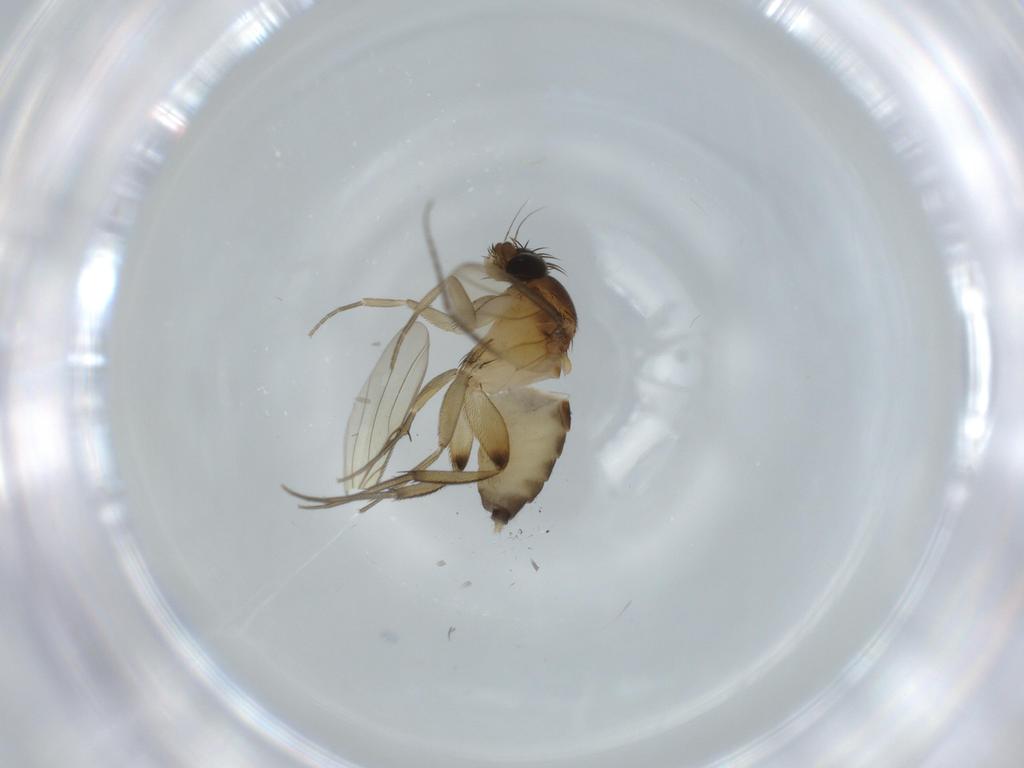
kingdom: Animalia
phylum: Arthropoda
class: Insecta
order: Diptera
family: Phoridae
